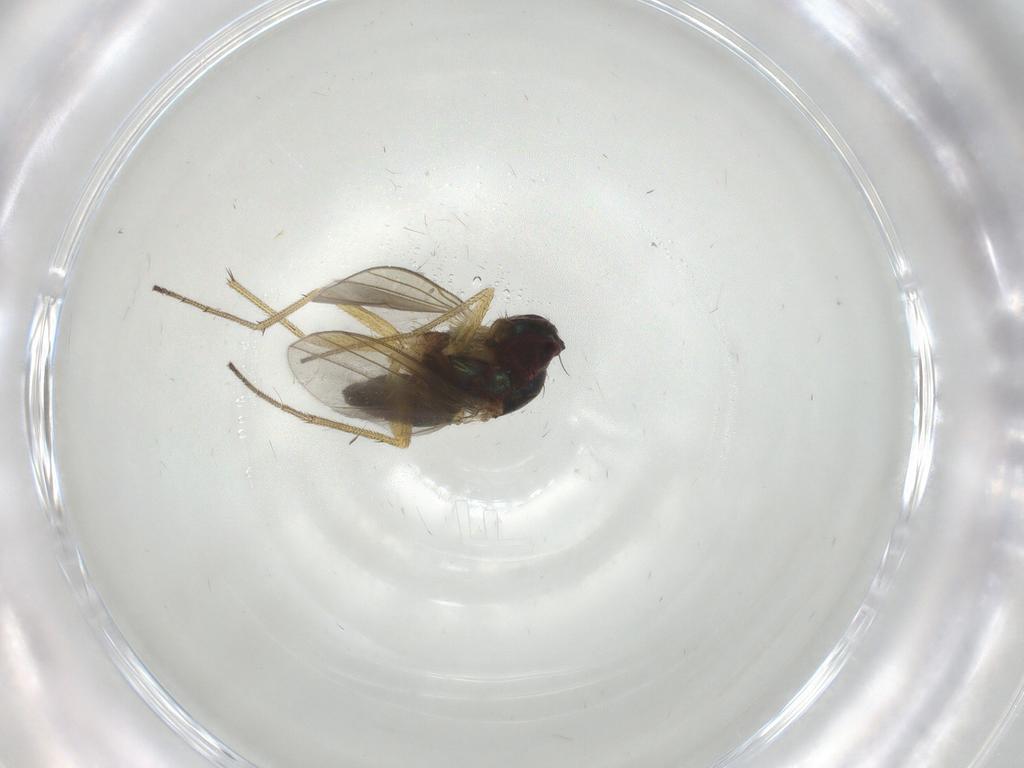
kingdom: Animalia
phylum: Arthropoda
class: Insecta
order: Diptera
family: Dolichopodidae
